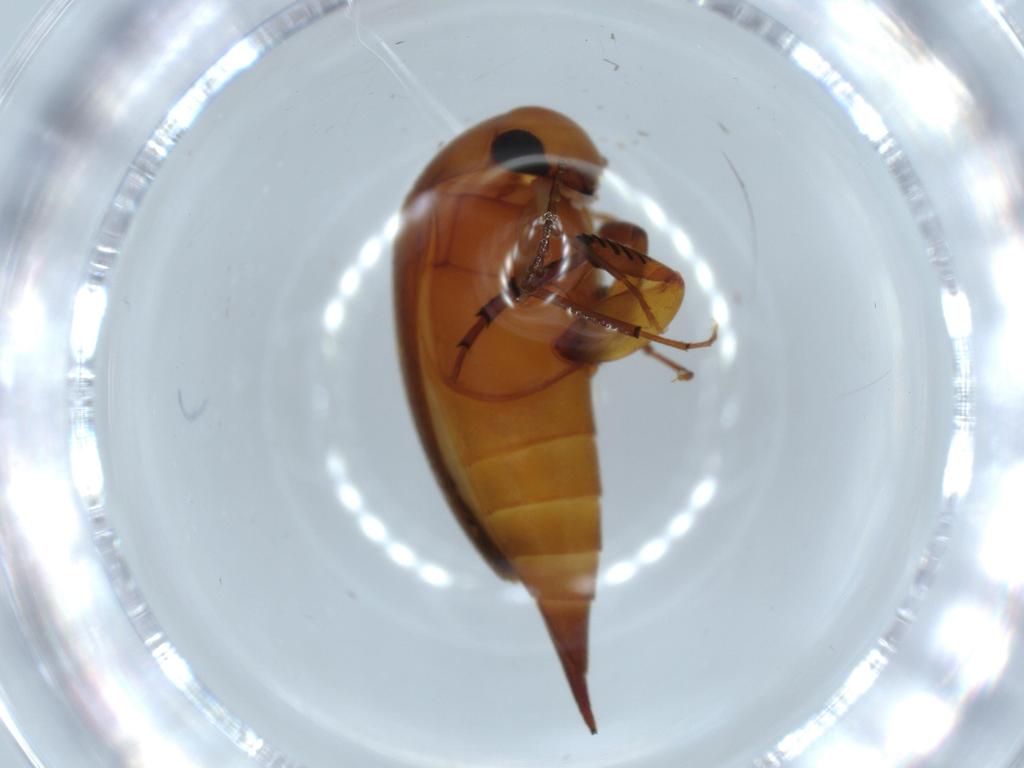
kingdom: Animalia
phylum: Arthropoda
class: Insecta
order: Coleoptera
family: Mordellidae
